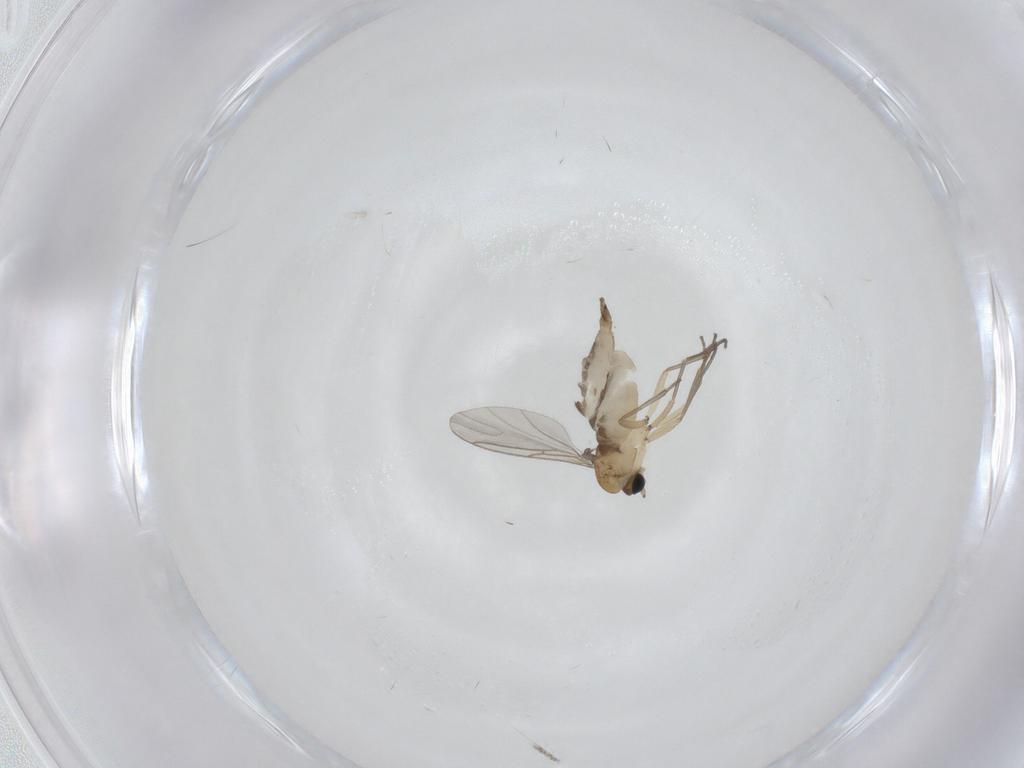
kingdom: Animalia
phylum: Arthropoda
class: Insecta
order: Diptera
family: Sciaridae
